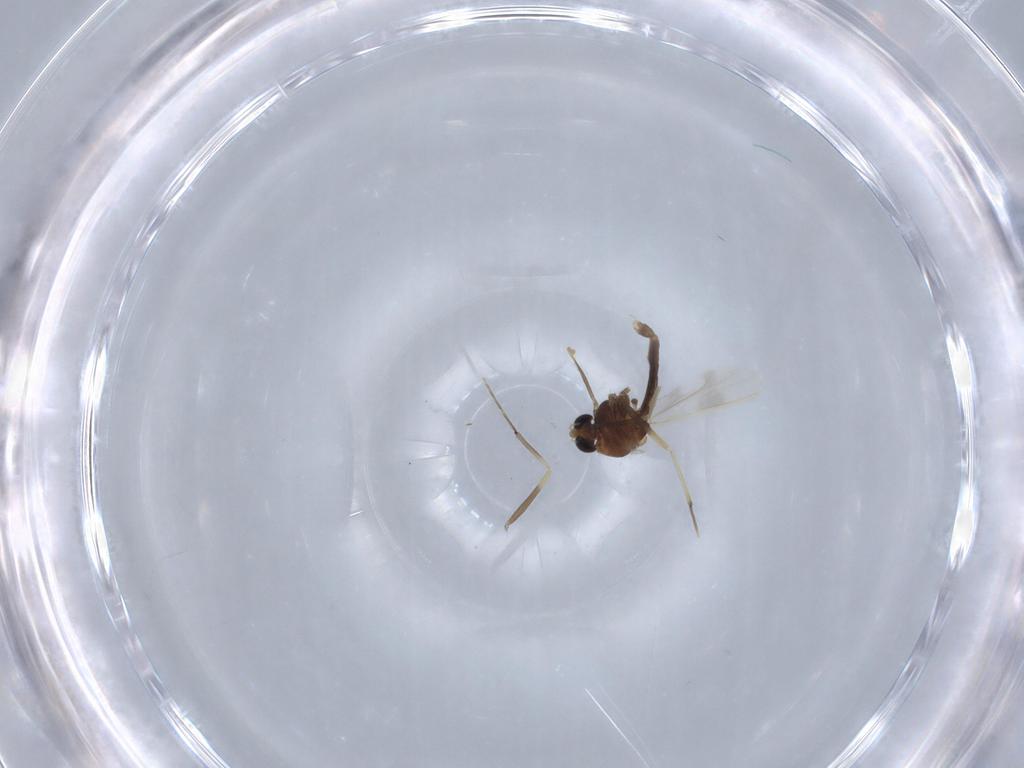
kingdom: Animalia
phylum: Arthropoda
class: Insecta
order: Diptera
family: Chironomidae
